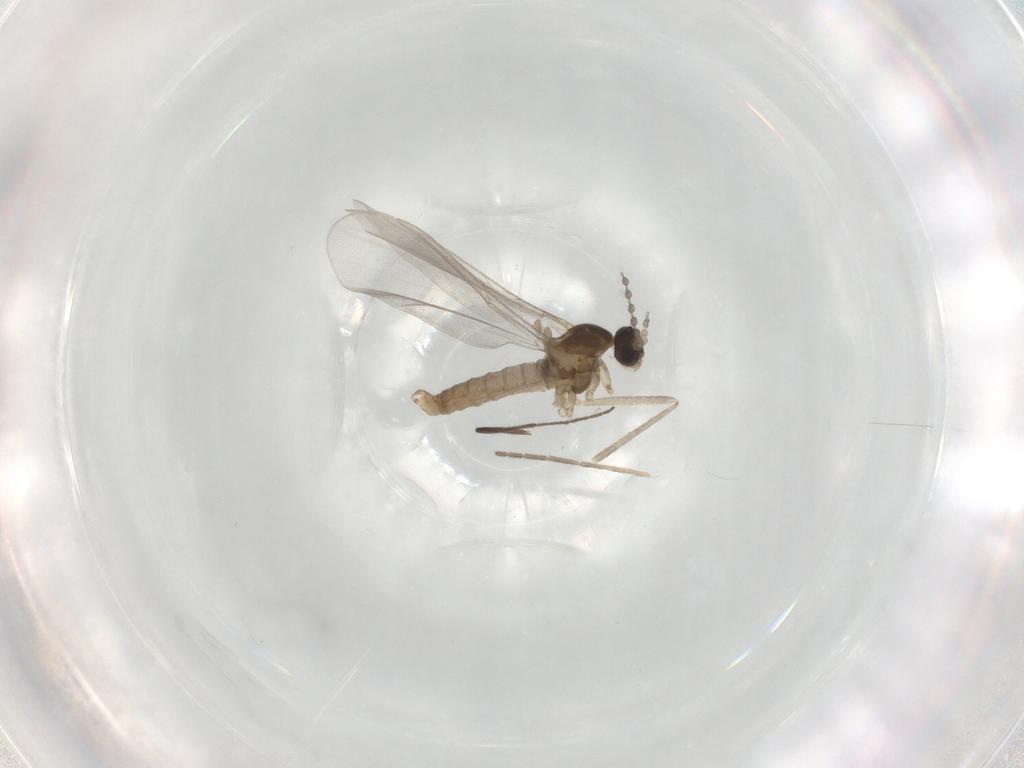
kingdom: Animalia
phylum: Arthropoda
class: Insecta
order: Diptera
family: Cecidomyiidae
